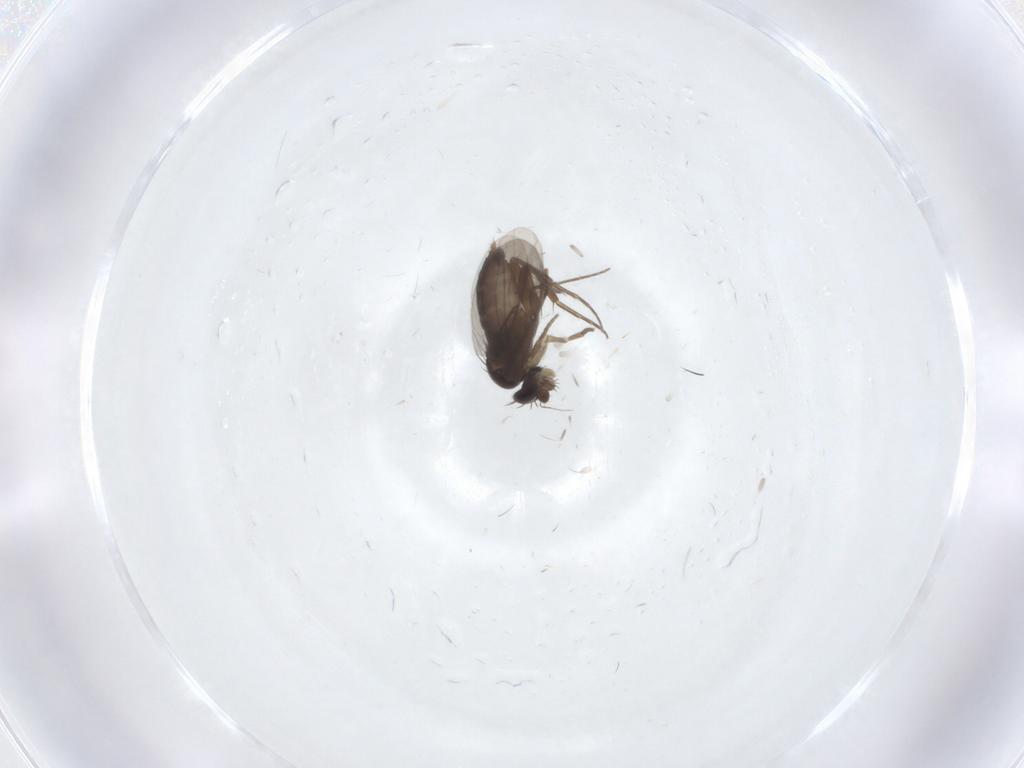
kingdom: Animalia
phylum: Arthropoda
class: Insecta
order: Diptera
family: Phoridae
